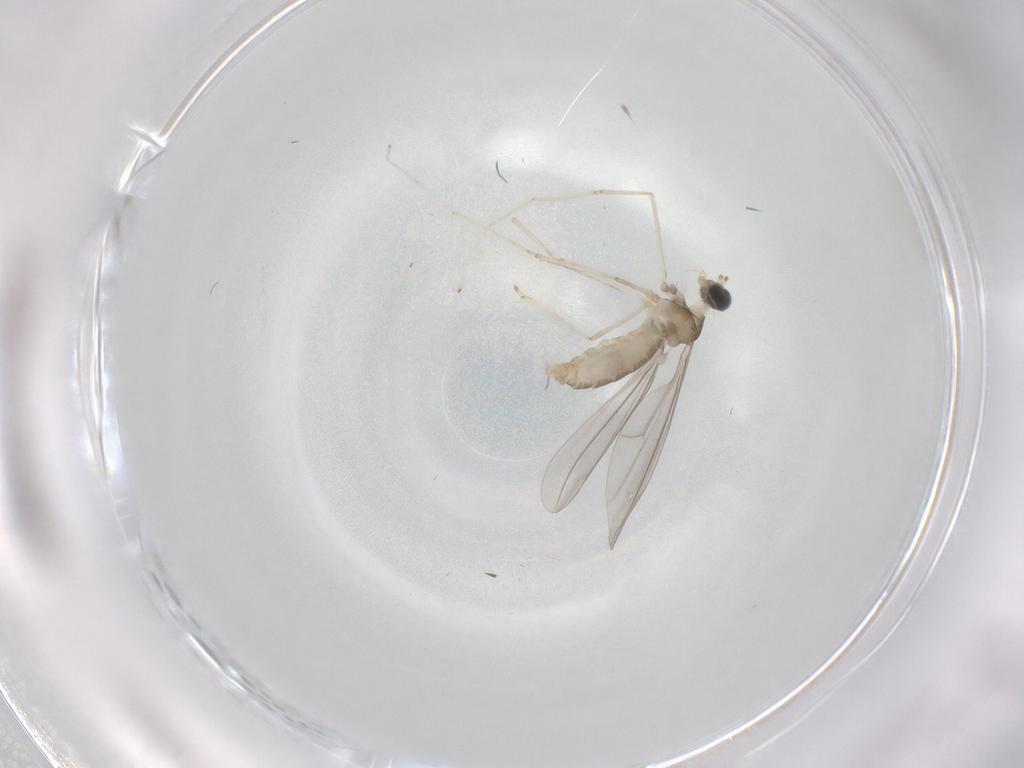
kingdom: Animalia
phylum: Arthropoda
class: Insecta
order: Diptera
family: Cecidomyiidae
